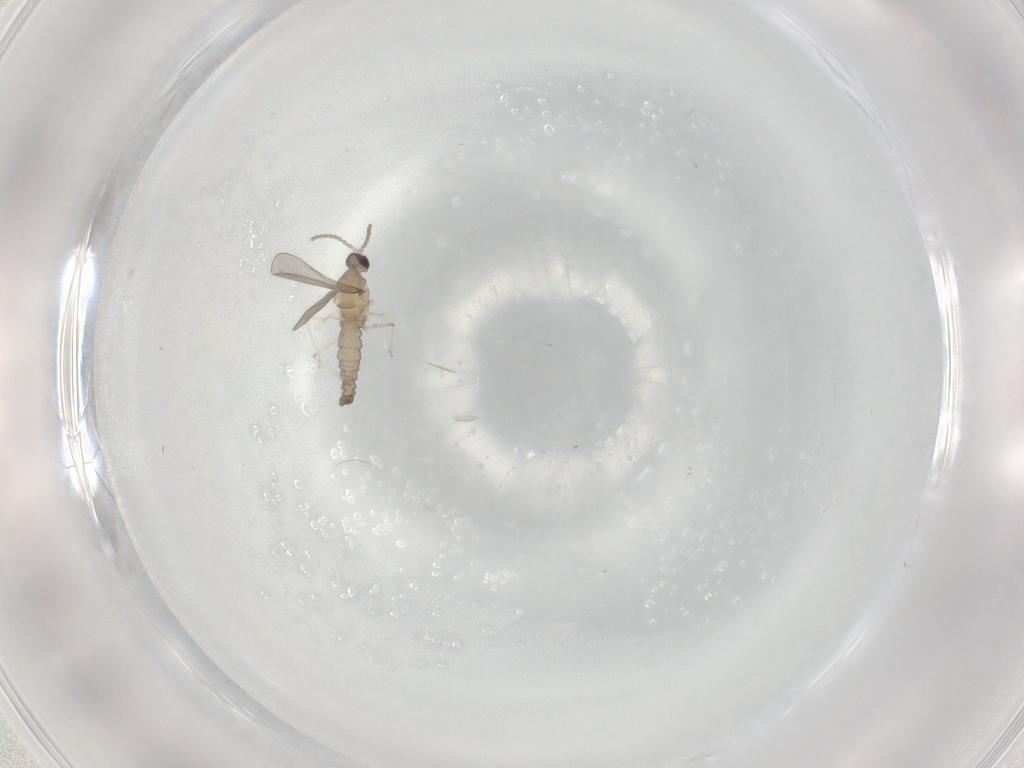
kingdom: Animalia
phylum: Arthropoda
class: Insecta
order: Diptera
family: Cecidomyiidae
